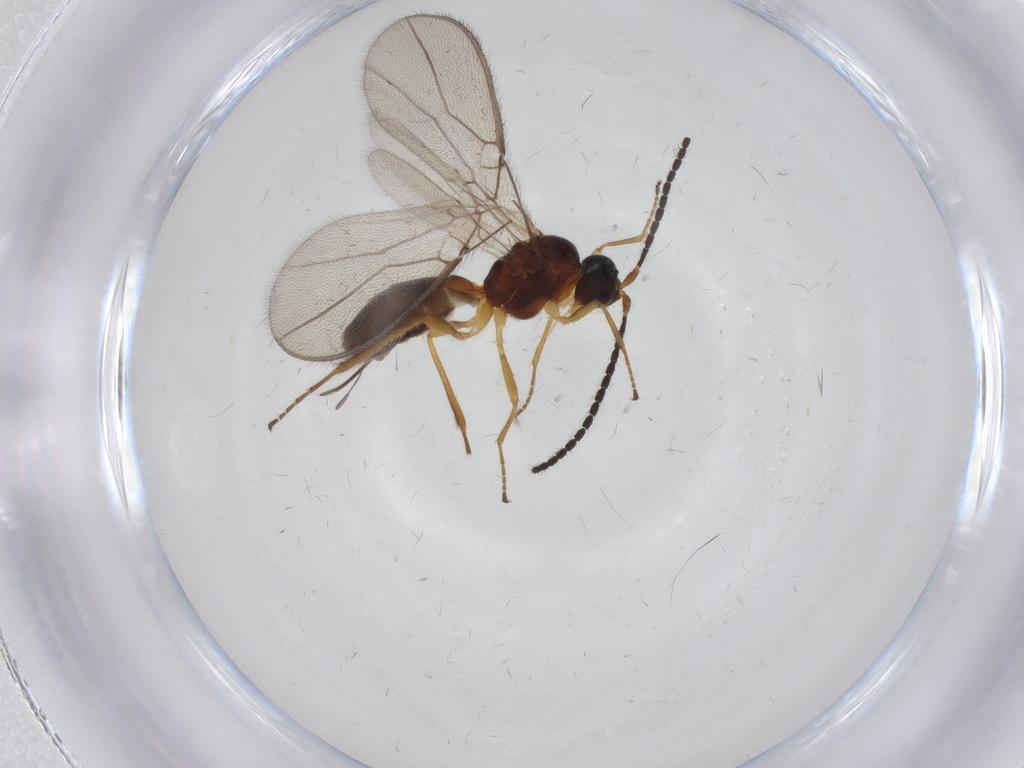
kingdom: Animalia
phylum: Arthropoda
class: Insecta
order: Hymenoptera
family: Braconidae
